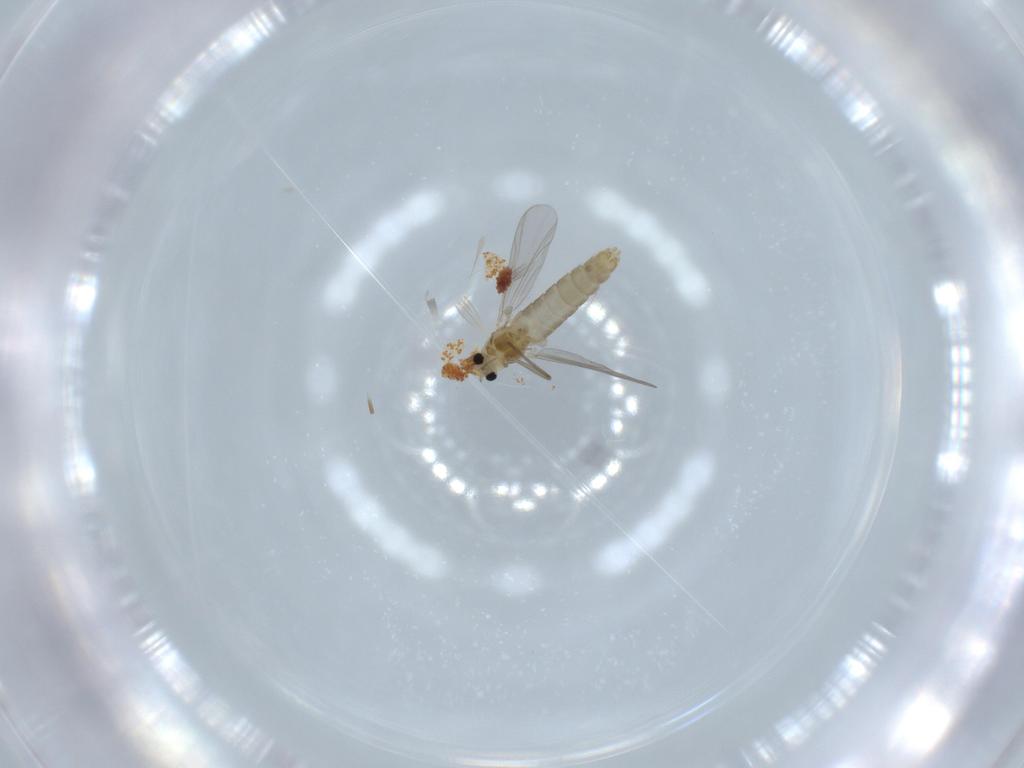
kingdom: Animalia
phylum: Arthropoda
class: Insecta
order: Diptera
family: Chironomidae
